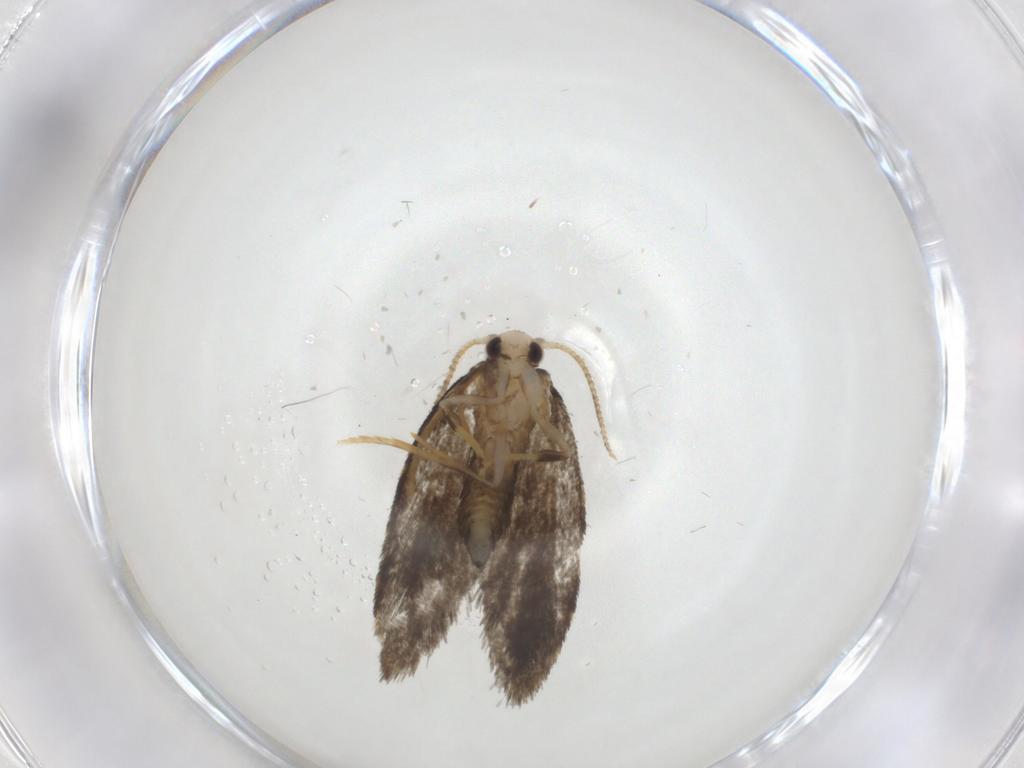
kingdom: Animalia
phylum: Arthropoda
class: Insecta
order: Lepidoptera
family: Psychidae
